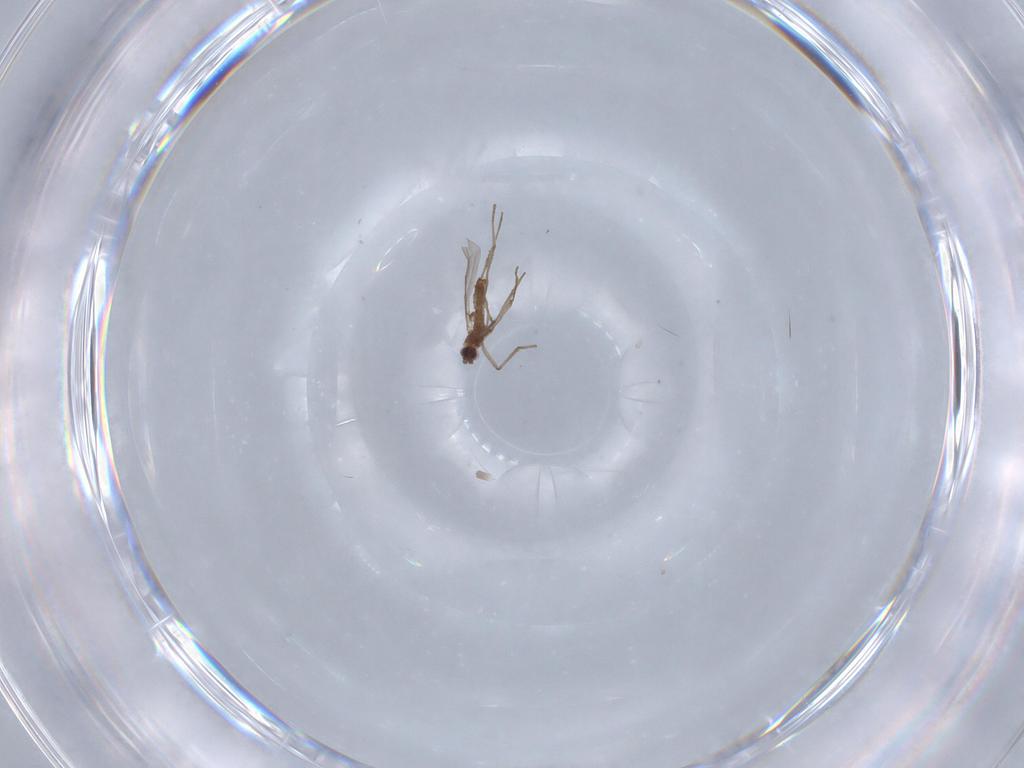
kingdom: Animalia
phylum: Arthropoda
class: Insecta
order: Diptera
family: Cecidomyiidae
